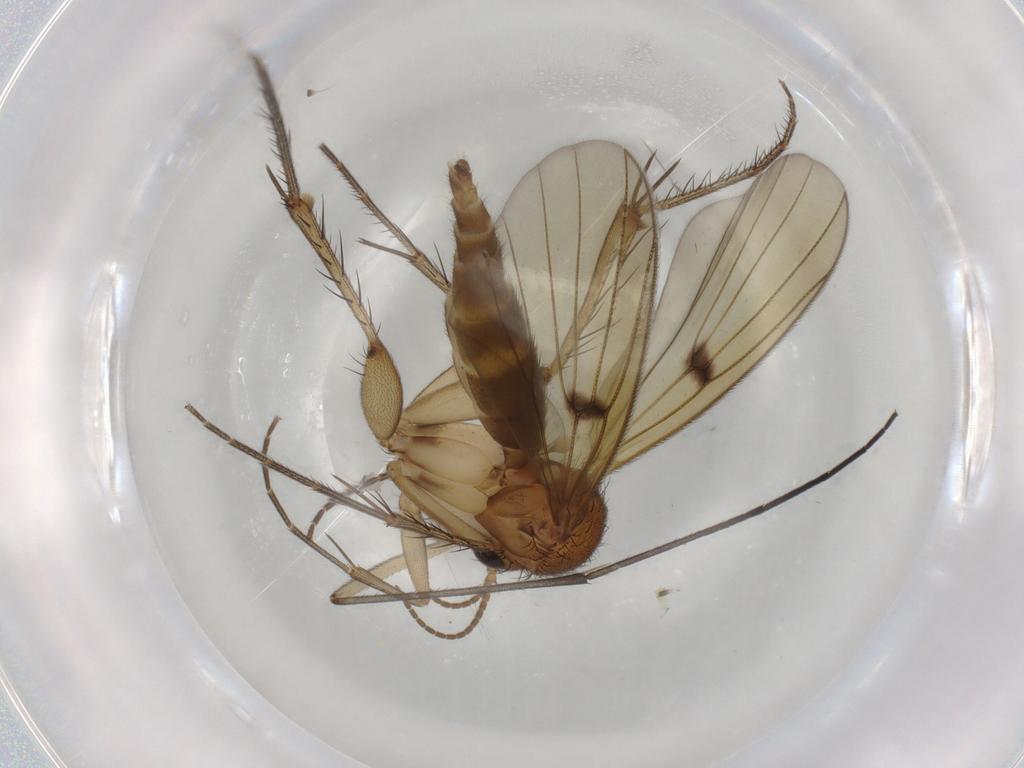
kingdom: Animalia
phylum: Arthropoda
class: Insecta
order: Diptera
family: Mycetophilidae
